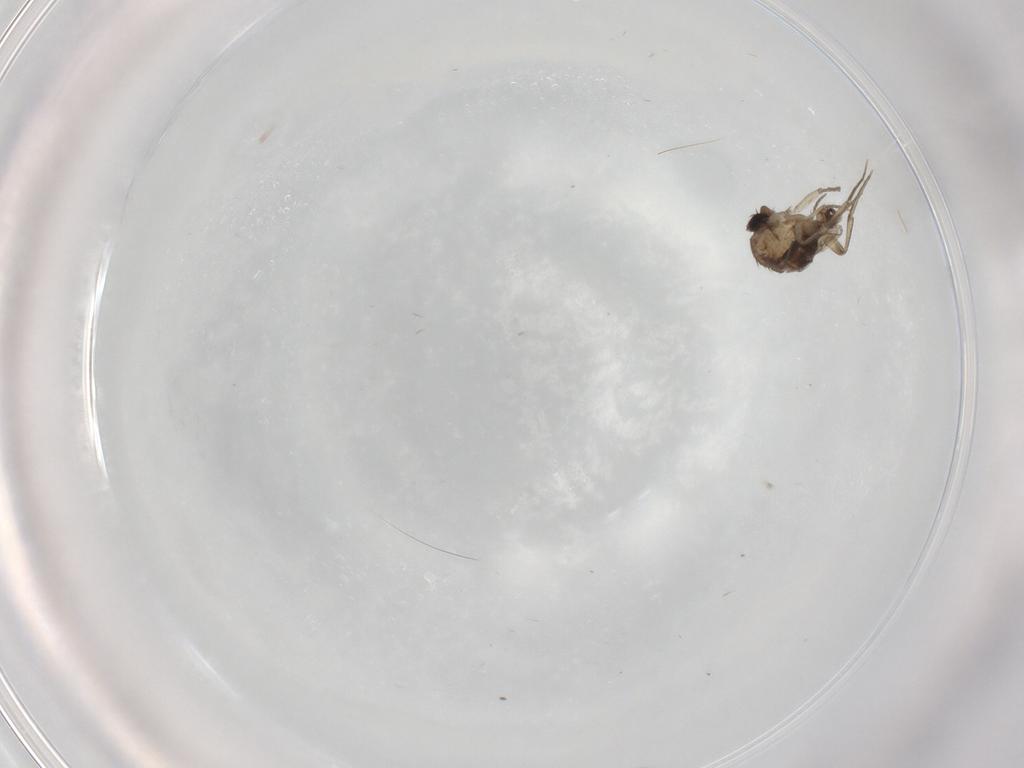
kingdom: Animalia
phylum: Arthropoda
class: Insecta
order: Diptera
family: Phoridae
